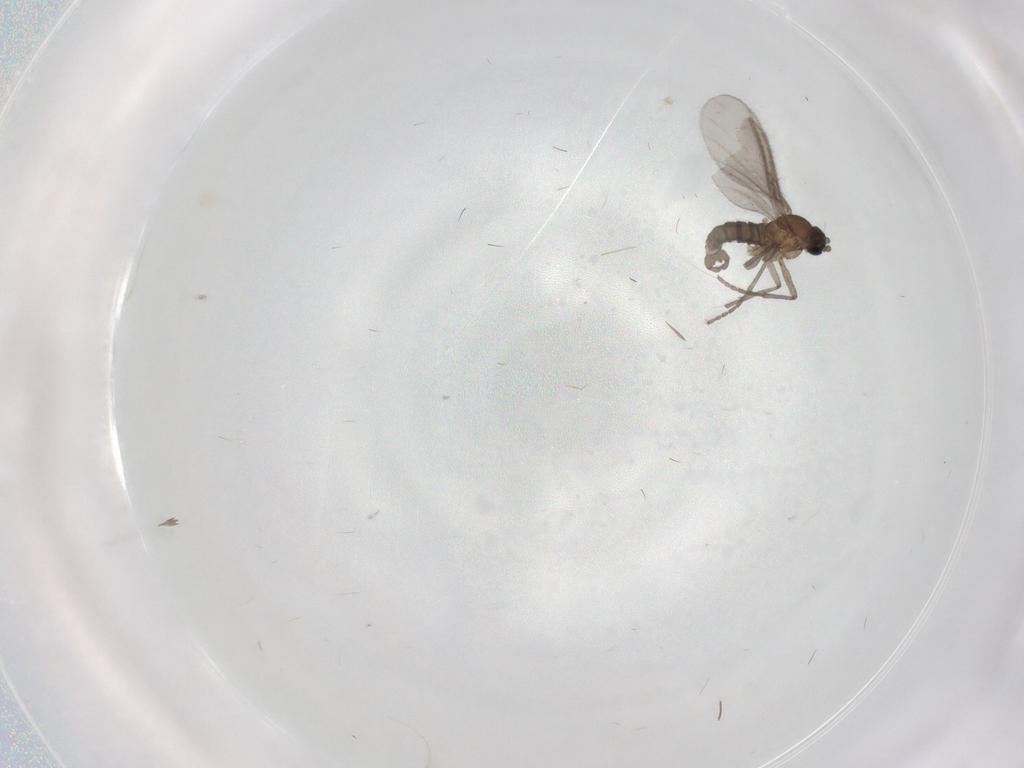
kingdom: Animalia
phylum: Arthropoda
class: Insecta
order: Diptera
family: Sciaridae
